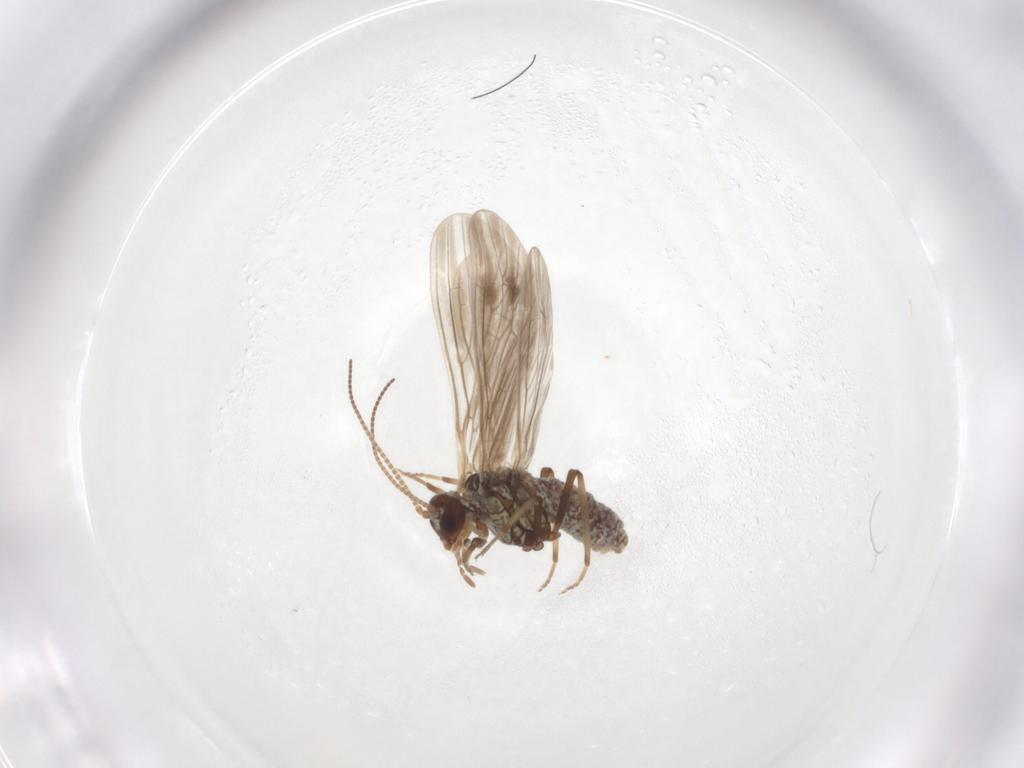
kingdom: Animalia
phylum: Arthropoda
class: Insecta
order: Neuroptera
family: Coniopterygidae
